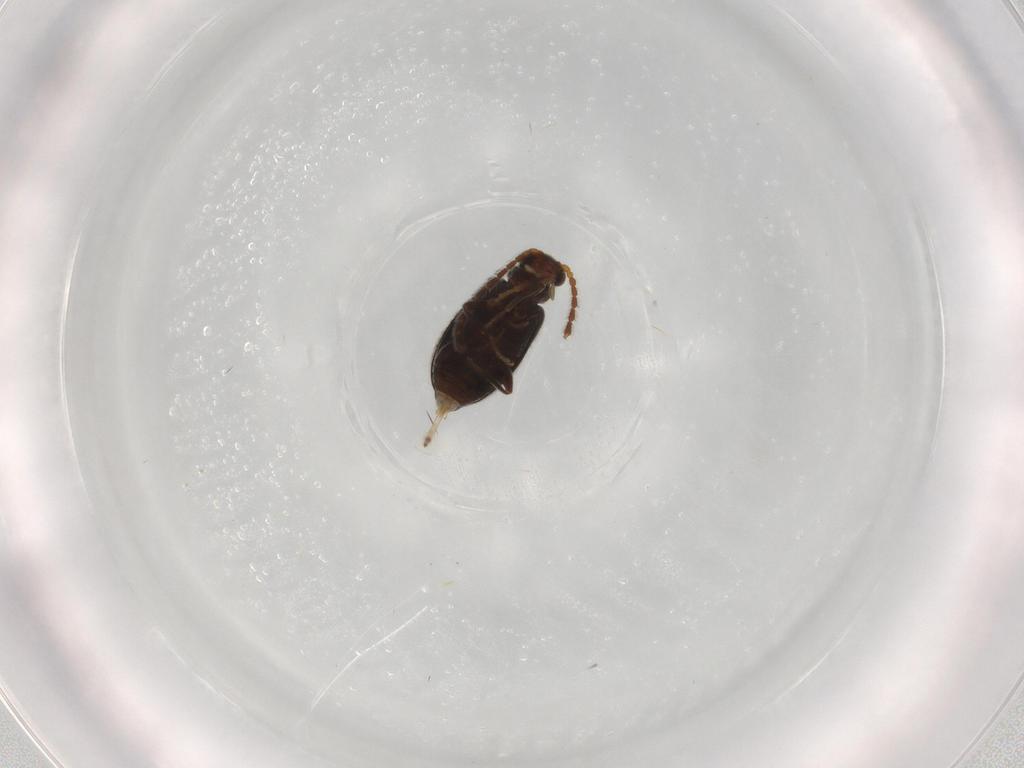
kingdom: Animalia
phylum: Arthropoda
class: Insecta
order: Coleoptera
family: Aderidae
